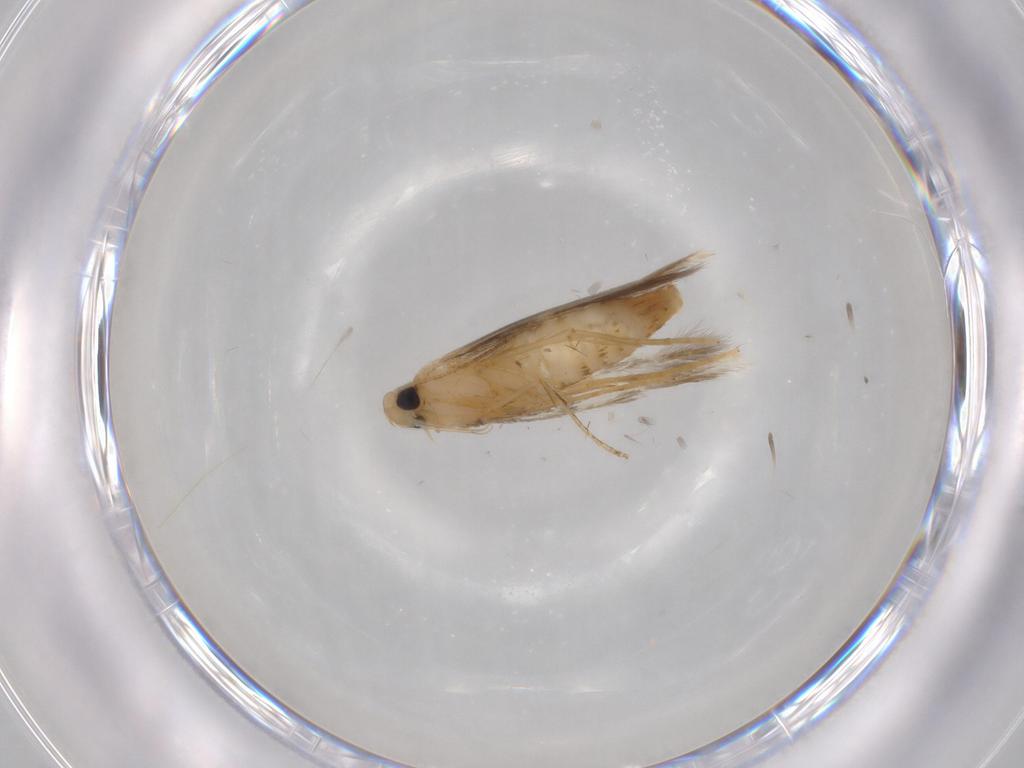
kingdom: Animalia
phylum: Arthropoda
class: Insecta
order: Lepidoptera
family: Tischeriidae
